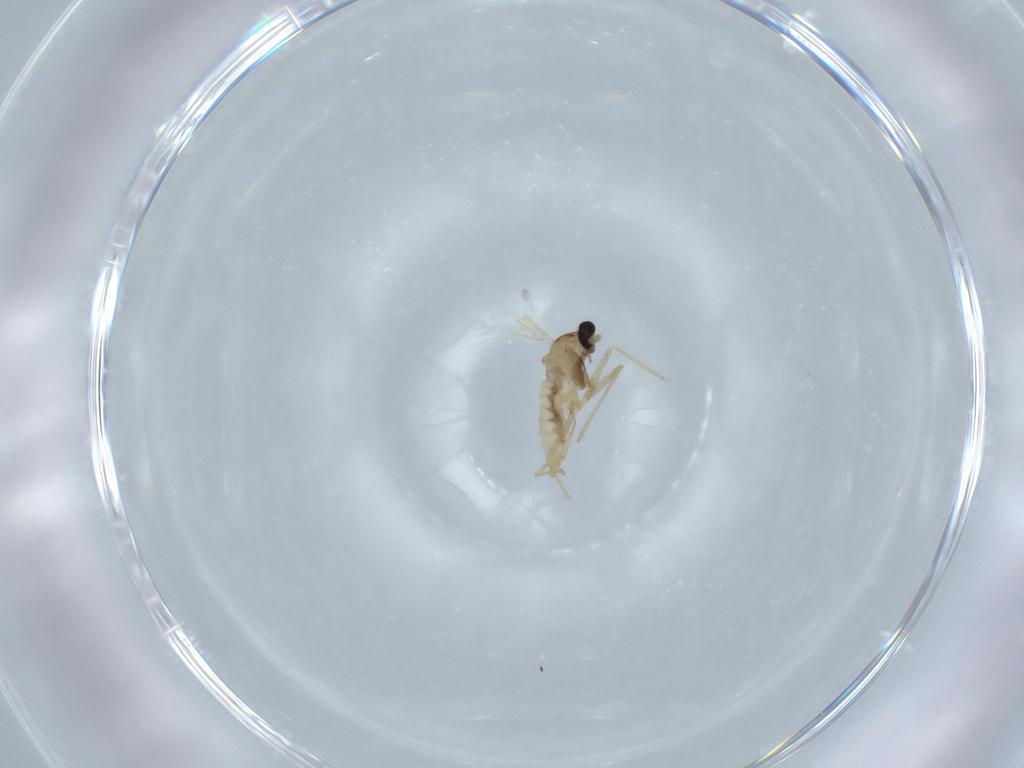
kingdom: Animalia
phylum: Arthropoda
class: Insecta
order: Diptera
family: Cecidomyiidae
